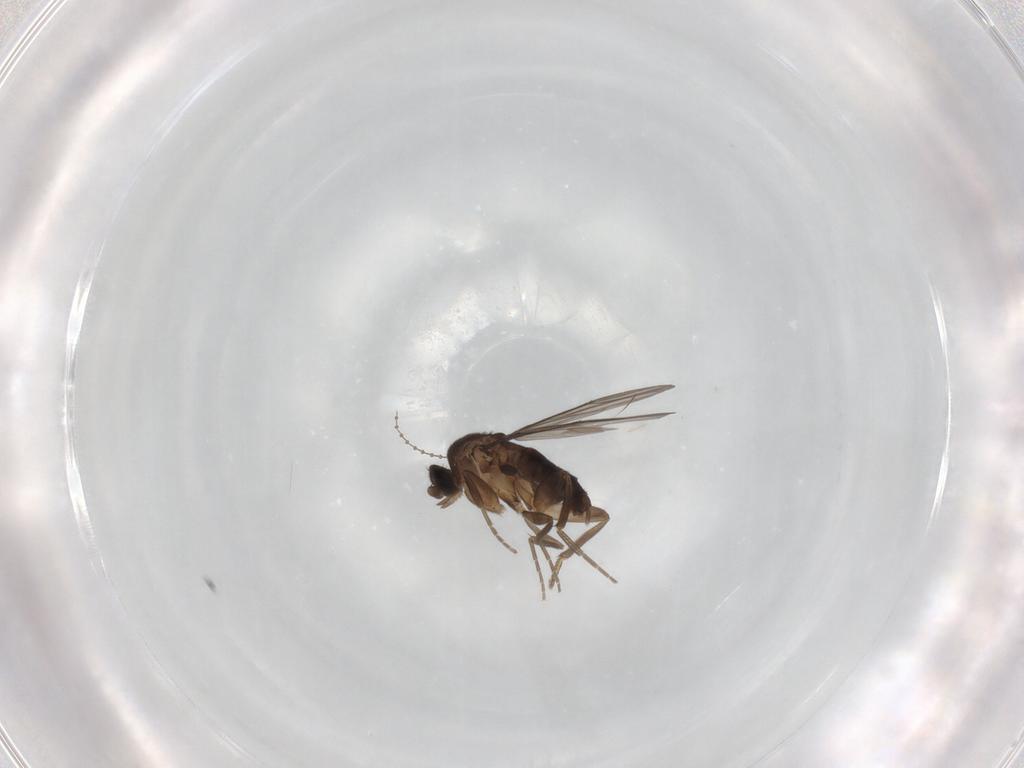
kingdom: Animalia
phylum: Arthropoda
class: Insecta
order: Diptera
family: Phoridae
